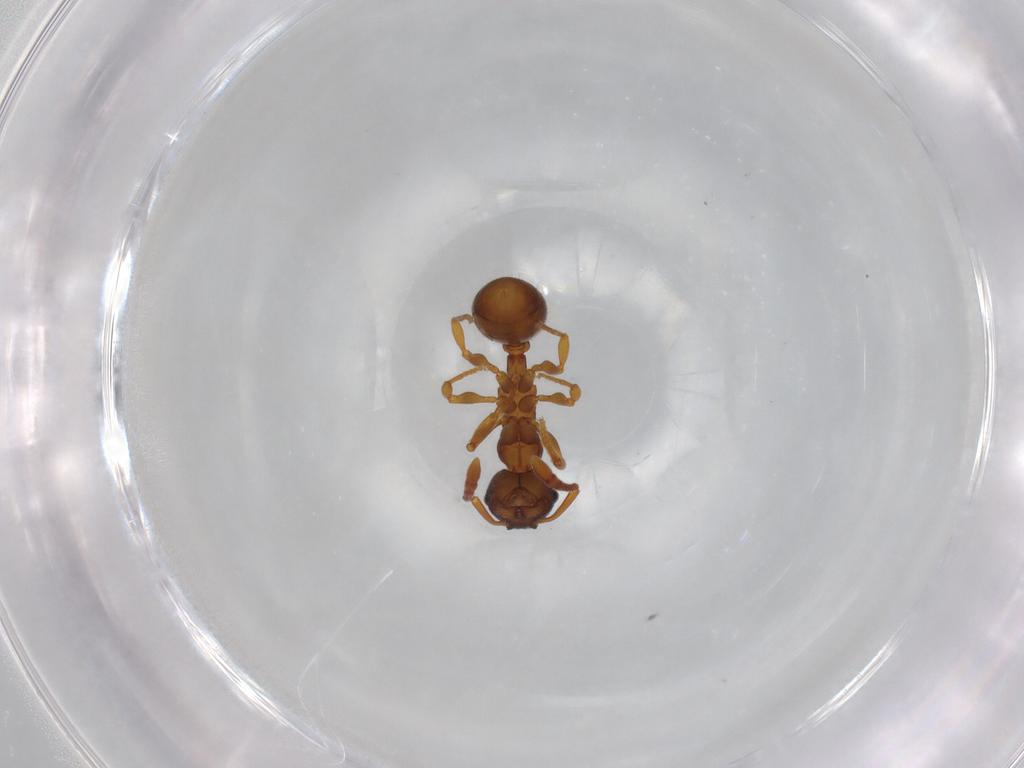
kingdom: Animalia
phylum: Arthropoda
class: Insecta
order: Hymenoptera
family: Formicidae
